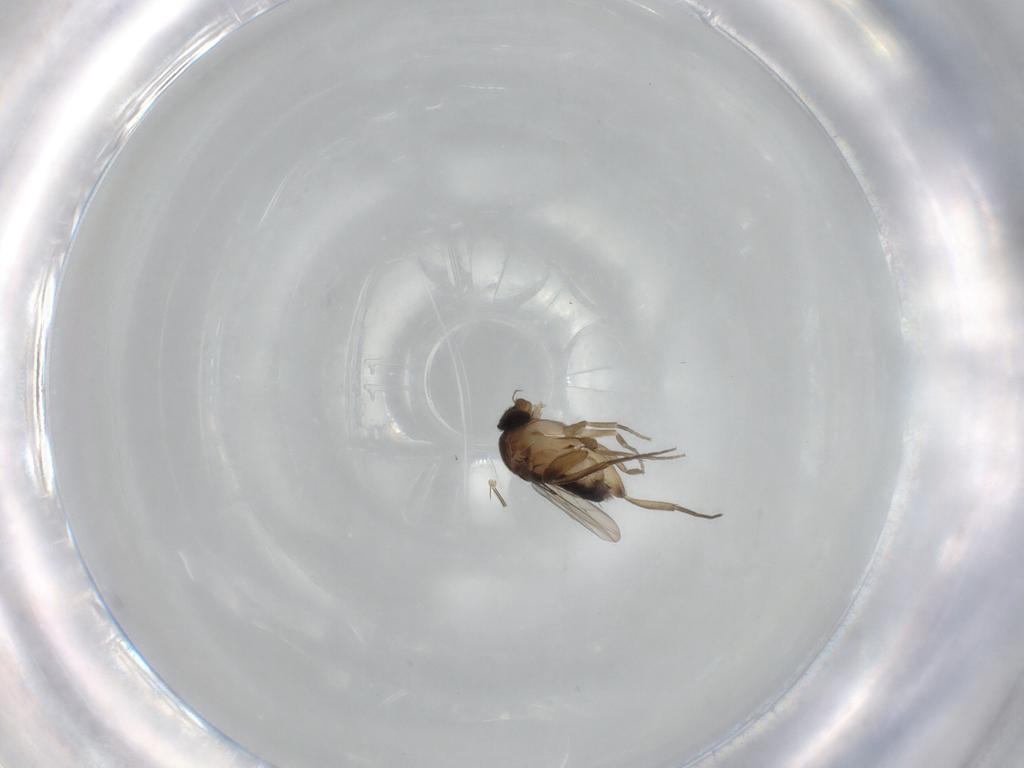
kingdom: Animalia
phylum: Arthropoda
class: Insecta
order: Diptera
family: Phoridae
